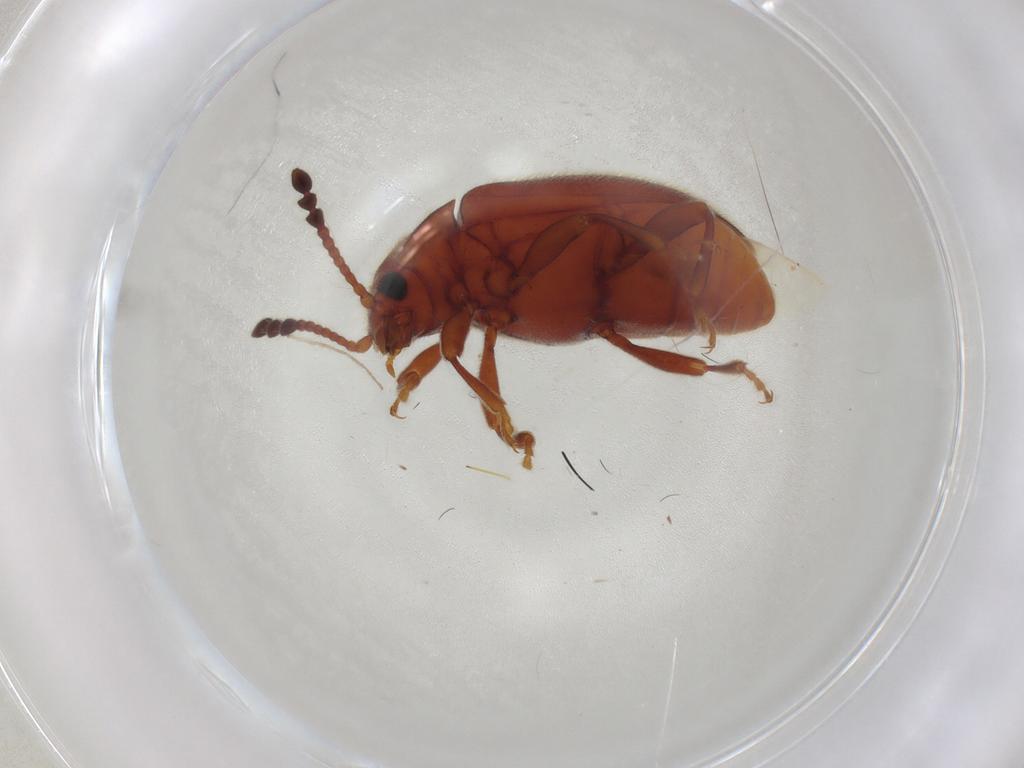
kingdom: Animalia
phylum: Arthropoda
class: Insecta
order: Coleoptera
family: Endomychidae
